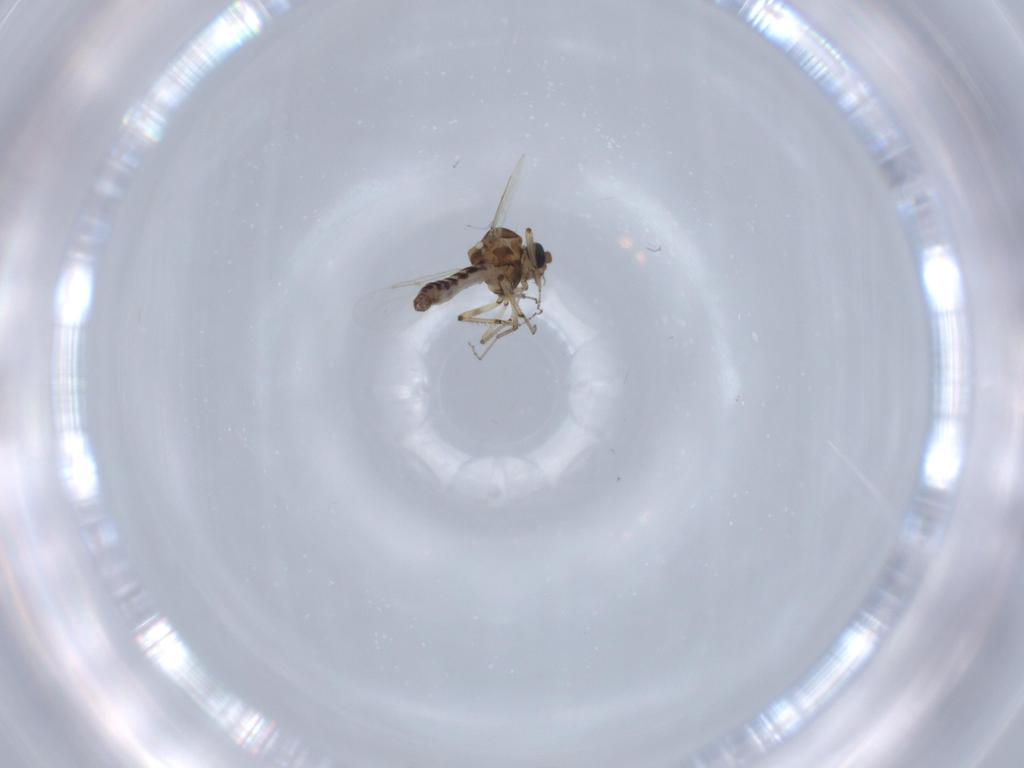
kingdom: Animalia
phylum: Arthropoda
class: Insecta
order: Diptera
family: Ceratopogonidae
